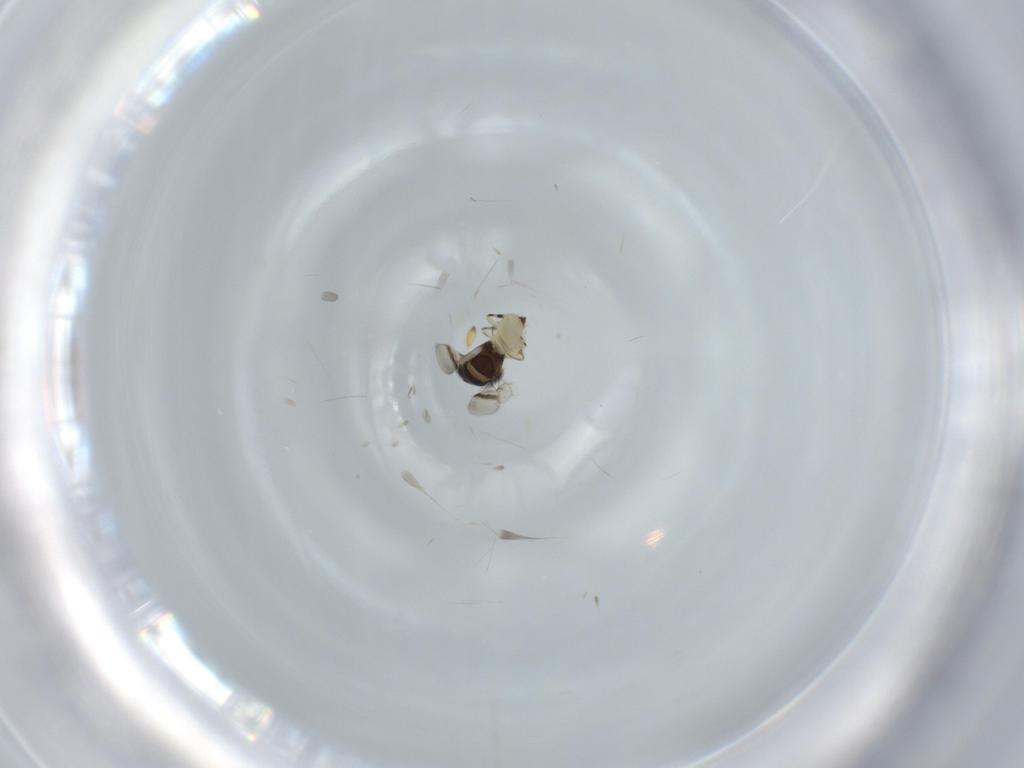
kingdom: Animalia
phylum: Arthropoda
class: Insecta
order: Hymenoptera
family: Scelionidae
